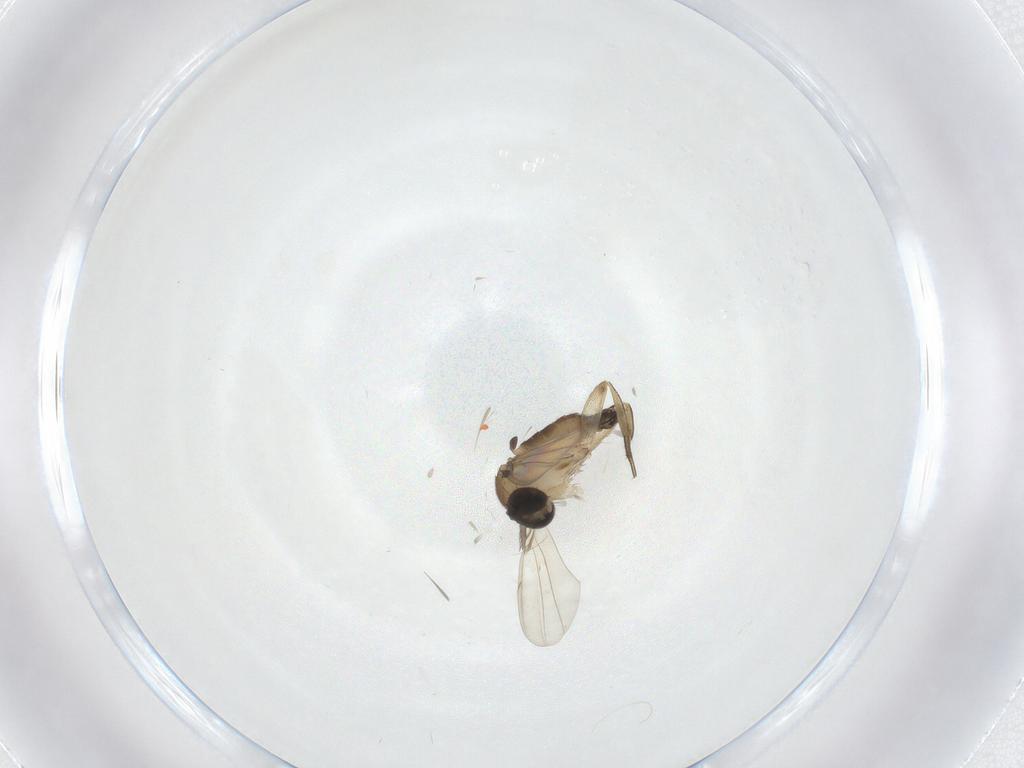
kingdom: Animalia
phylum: Arthropoda
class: Insecta
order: Diptera
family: Phoridae
